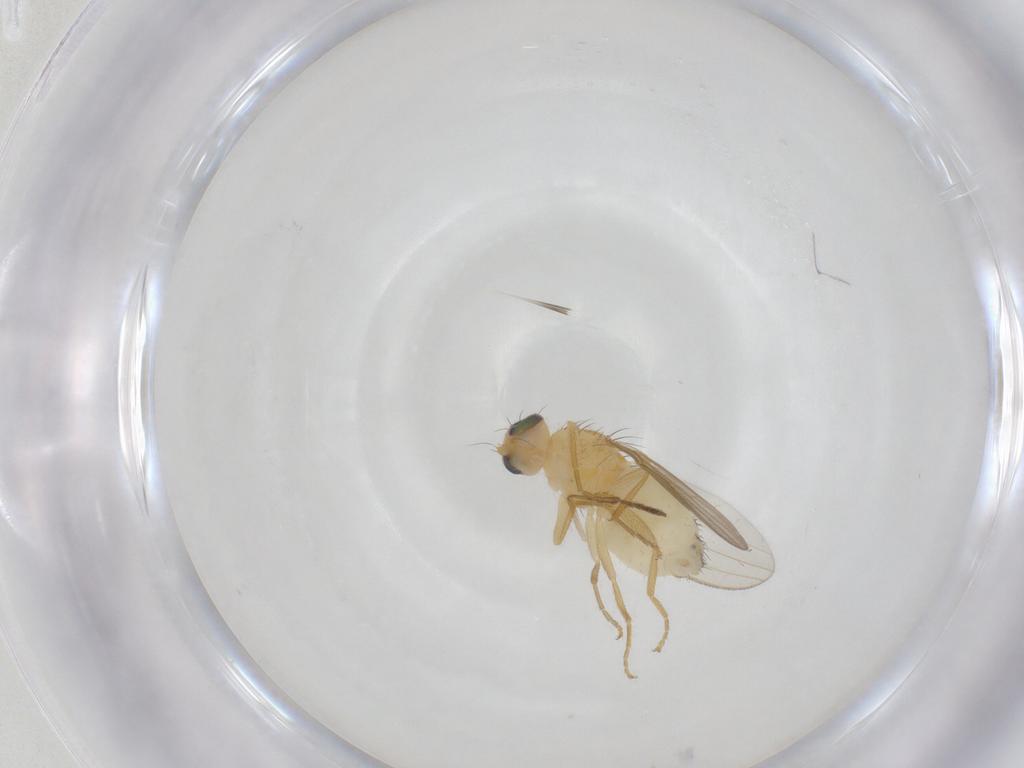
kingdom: Animalia
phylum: Arthropoda
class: Insecta
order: Diptera
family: Chyromyidae
